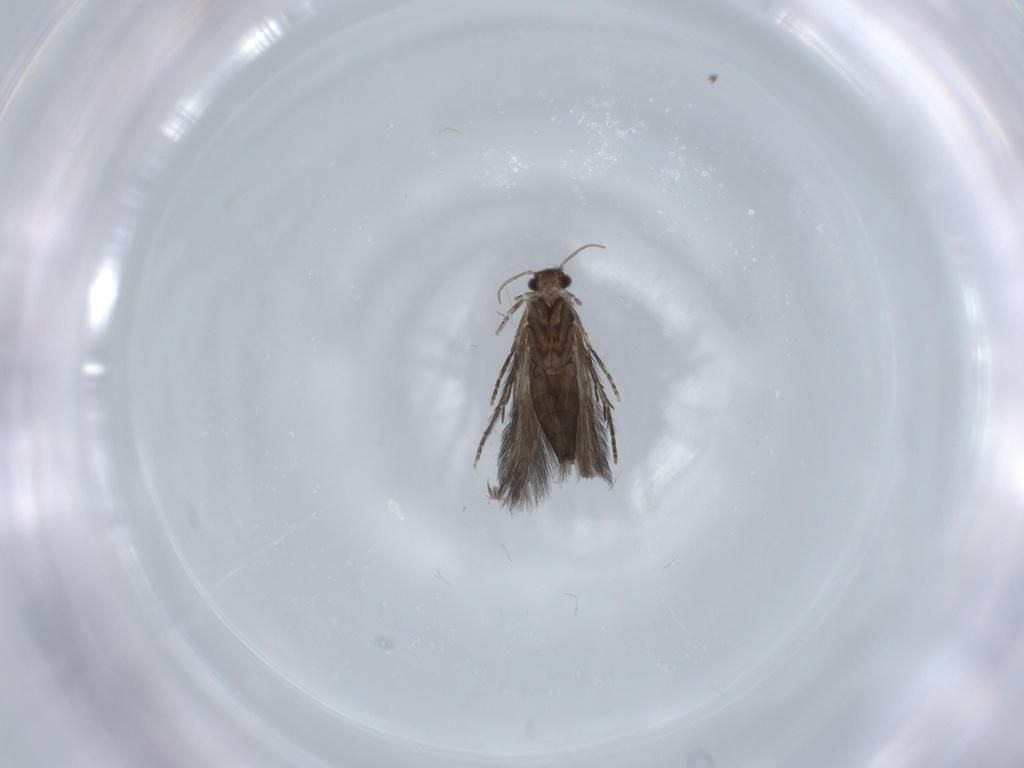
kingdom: Animalia
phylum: Arthropoda
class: Insecta
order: Trichoptera
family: Hydroptilidae
